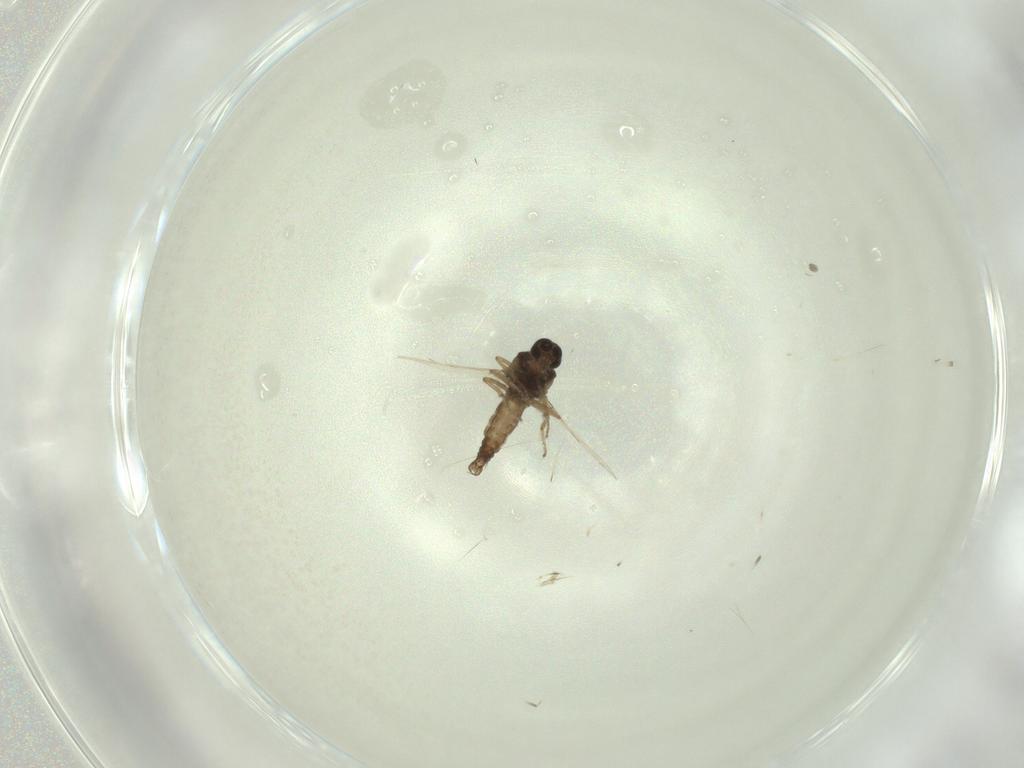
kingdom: Animalia
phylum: Arthropoda
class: Insecta
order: Diptera
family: Ceratopogonidae
